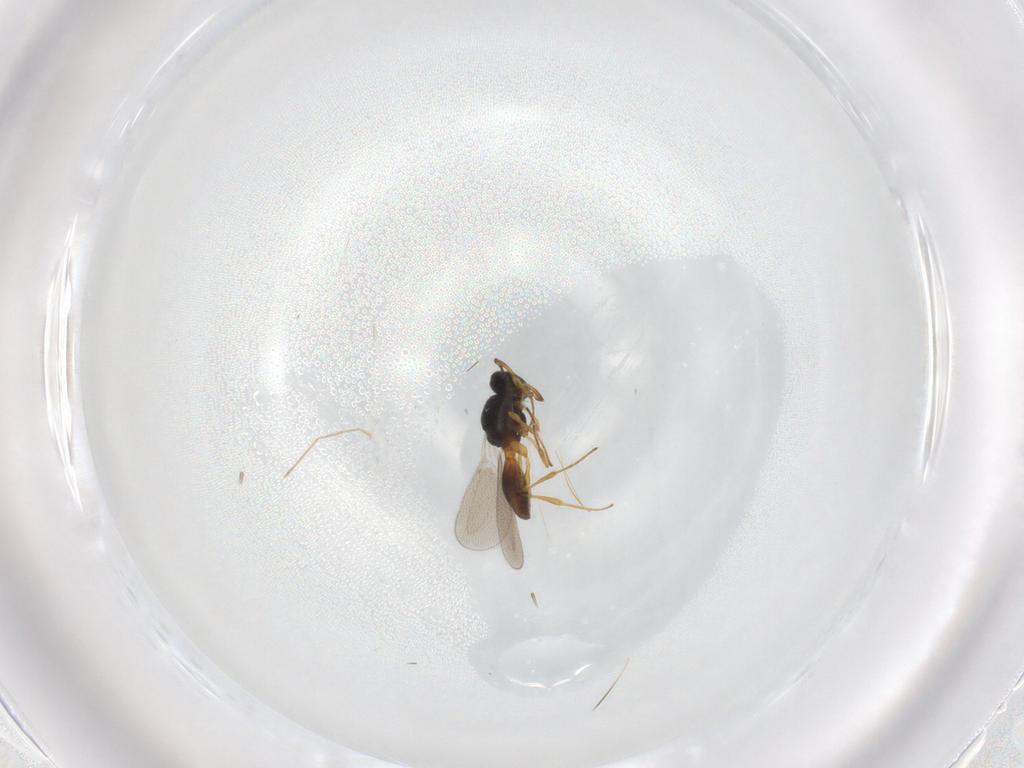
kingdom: Animalia
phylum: Arthropoda
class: Insecta
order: Hymenoptera
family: Platygastridae
